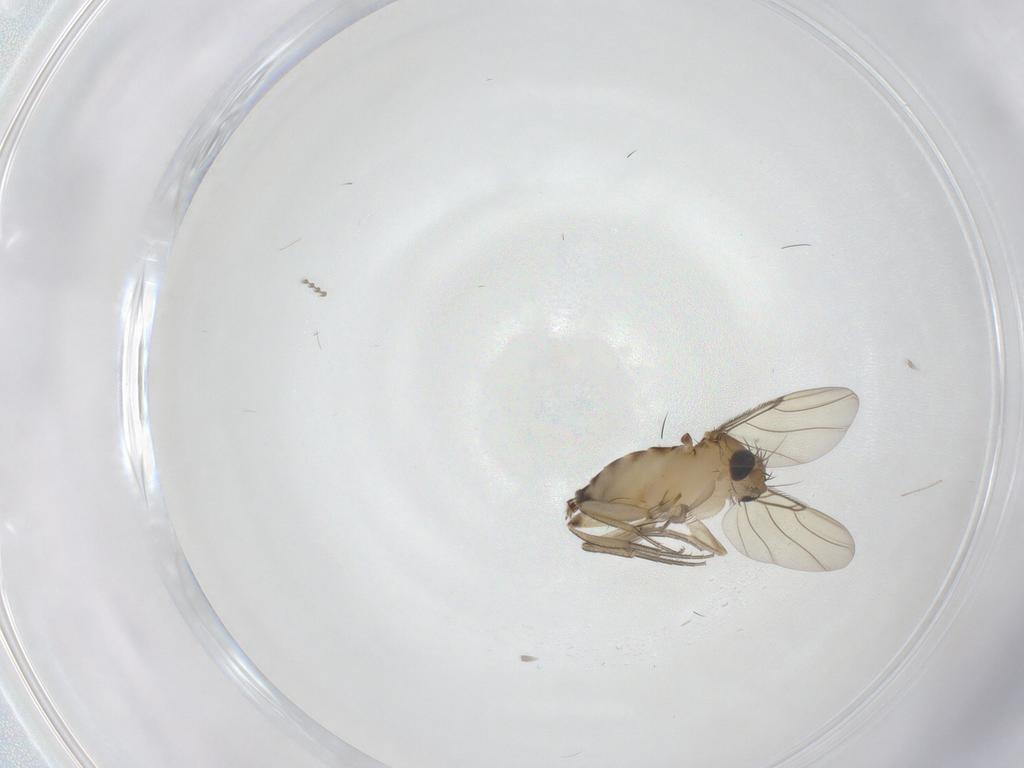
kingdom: Animalia
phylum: Arthropoda
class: Insecta
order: Diptera
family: Phoridae
